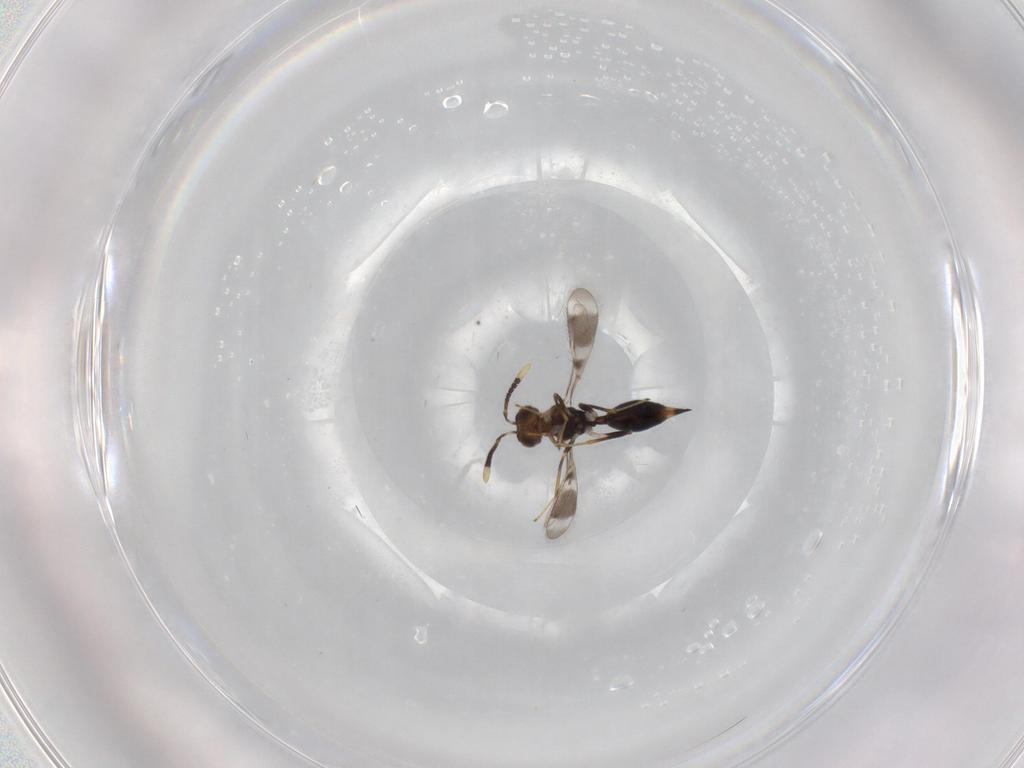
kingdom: Animalia
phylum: Arthropoda
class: Insecta
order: Hymenoptera
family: Diparidae
